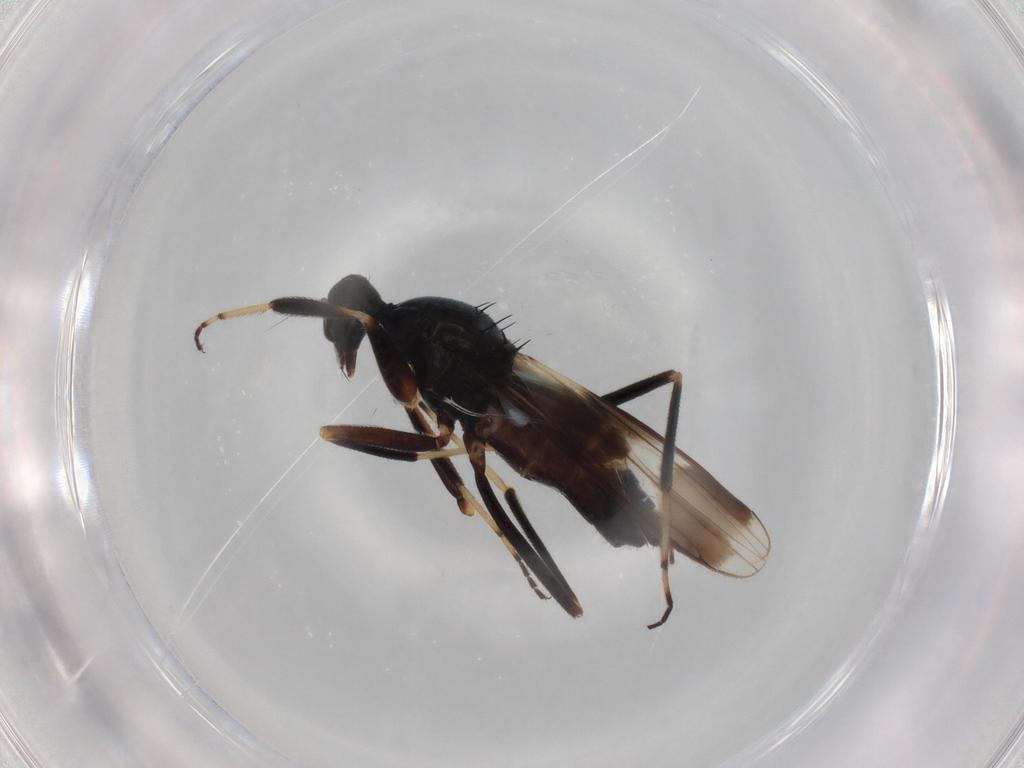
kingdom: Animalia
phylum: Arthropoda
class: Insecta
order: Diptera
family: Hybotidae
